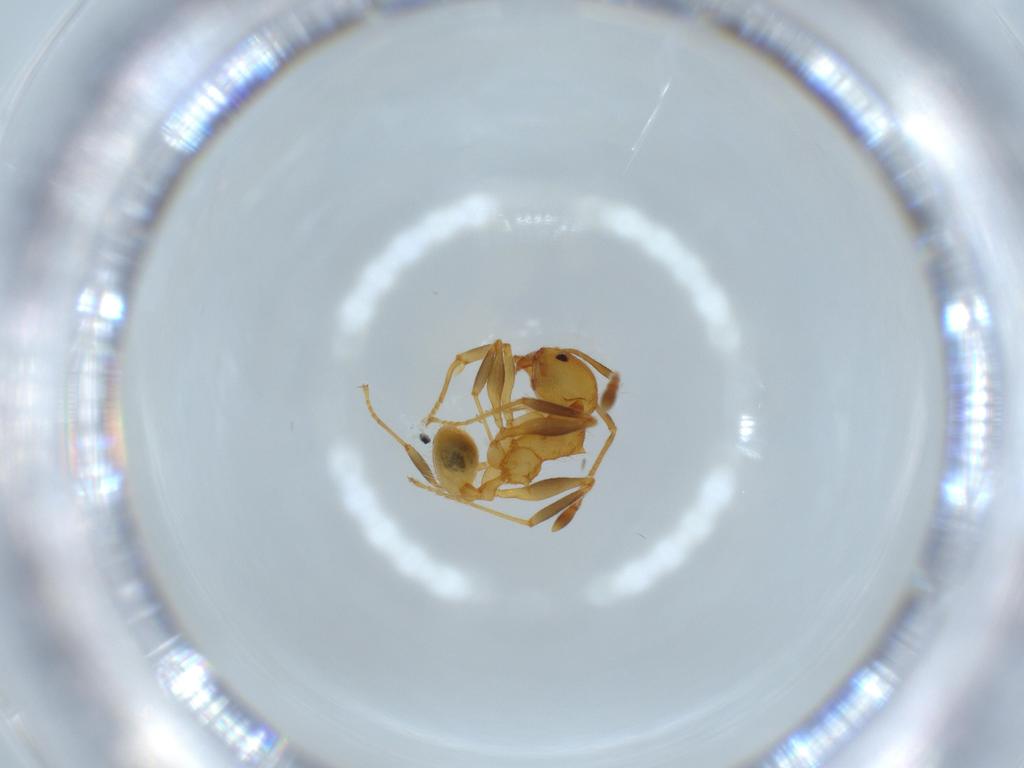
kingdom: Animalia
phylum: Arthropoda
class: Insecta
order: Hymenoptera
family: Formicidae
